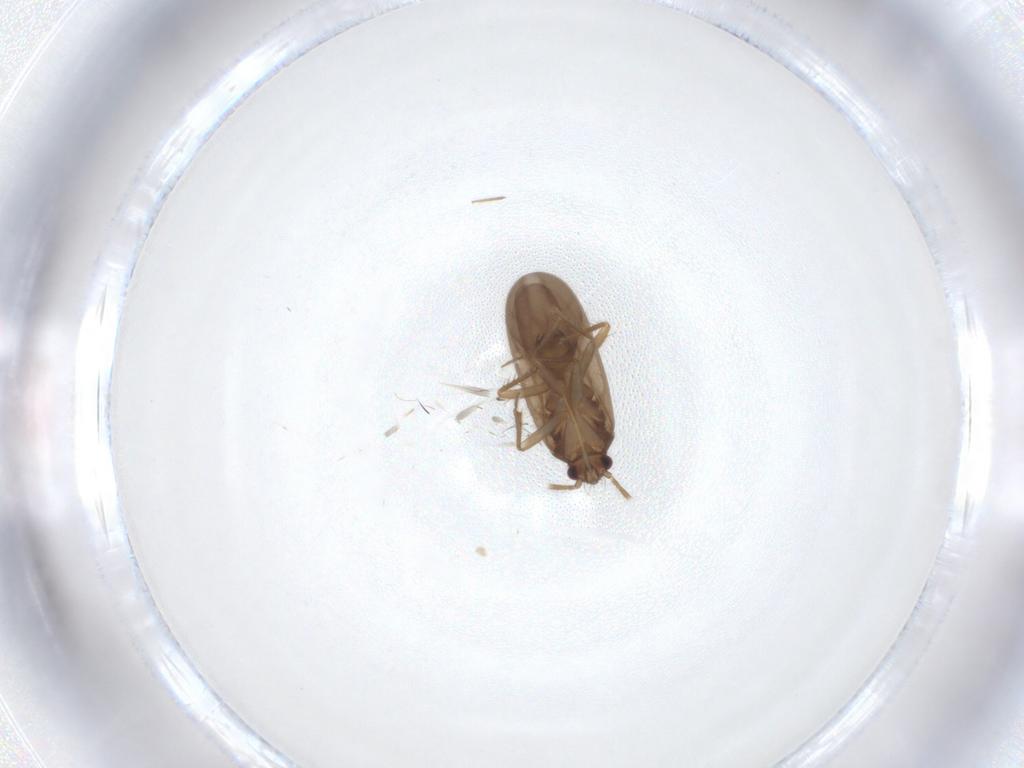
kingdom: Animalia
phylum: Arthropoda
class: Insecta
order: Hemiptera
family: Ceratocombidae
